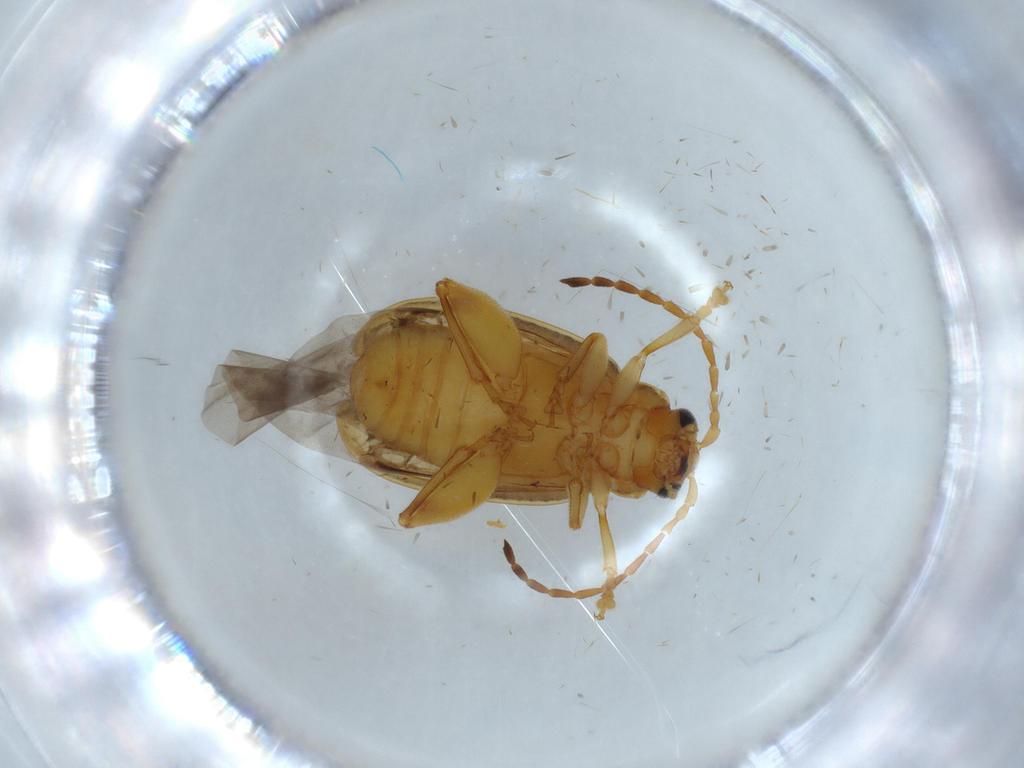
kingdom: Animalia
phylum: Arthropoda
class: Insecta
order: Coleoptera
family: Chrysomelidae
